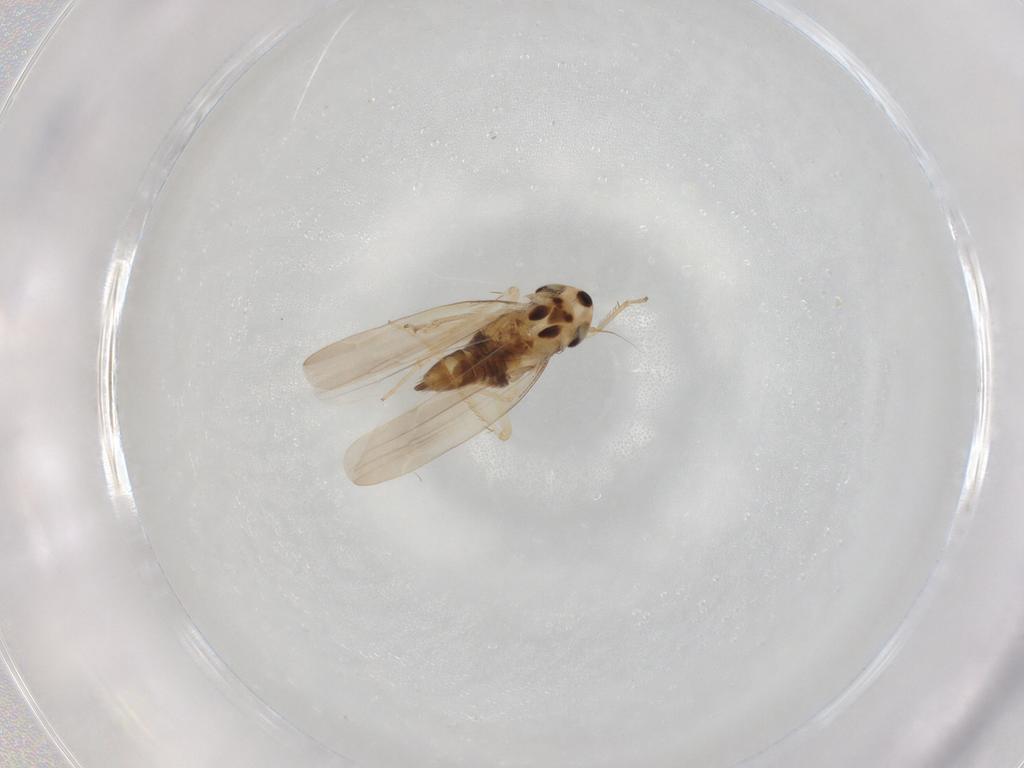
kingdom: Animalia
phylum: Arthropoda
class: Insecta
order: Hemiptera
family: Cicadellidae
